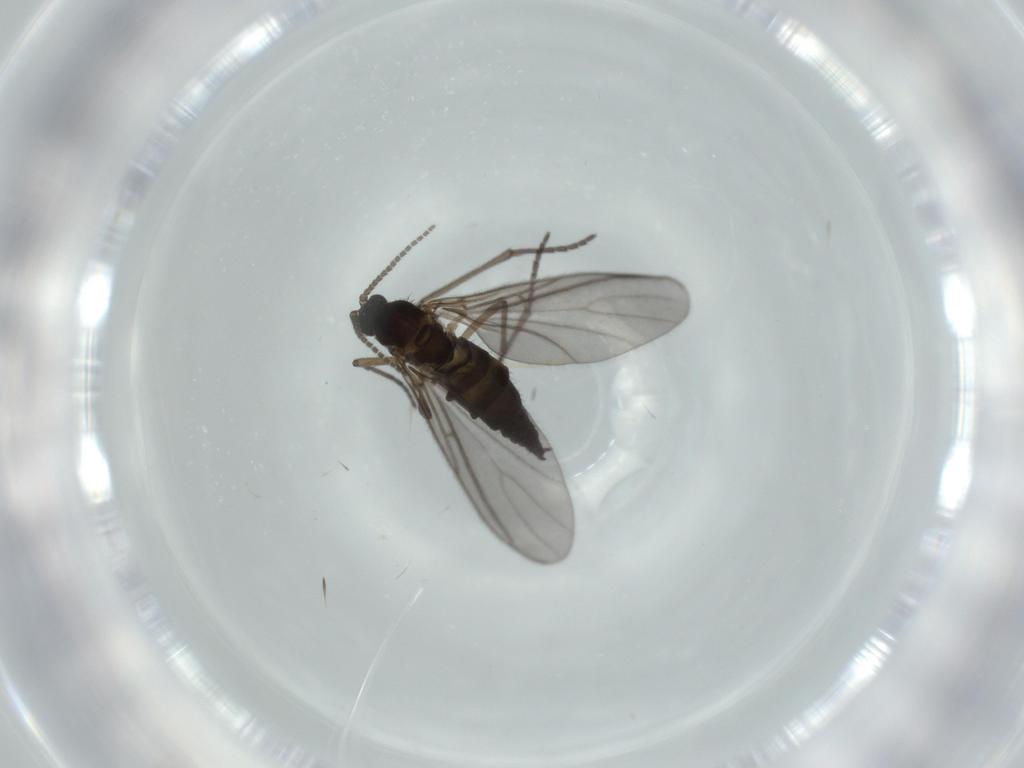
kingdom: Animalia
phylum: Arthropoda
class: Insecta
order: Diptera
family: Sciaridae
